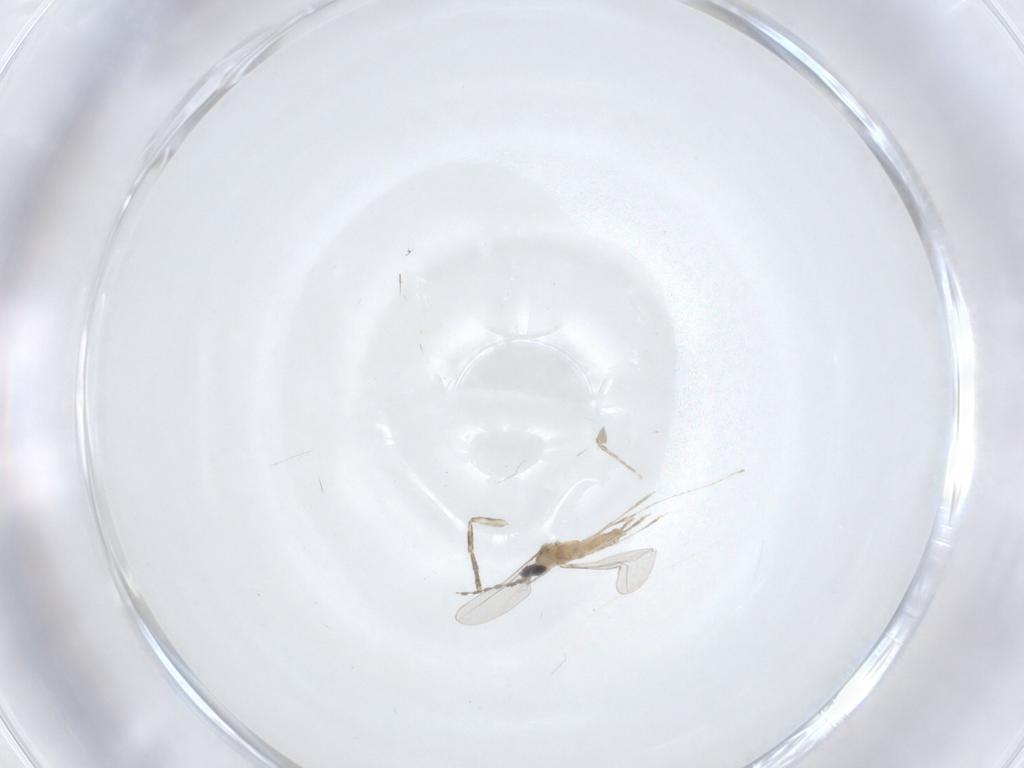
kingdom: Animalia
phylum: Arthropoda
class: Insecta
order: Diptera
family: Cecidomyiidae
